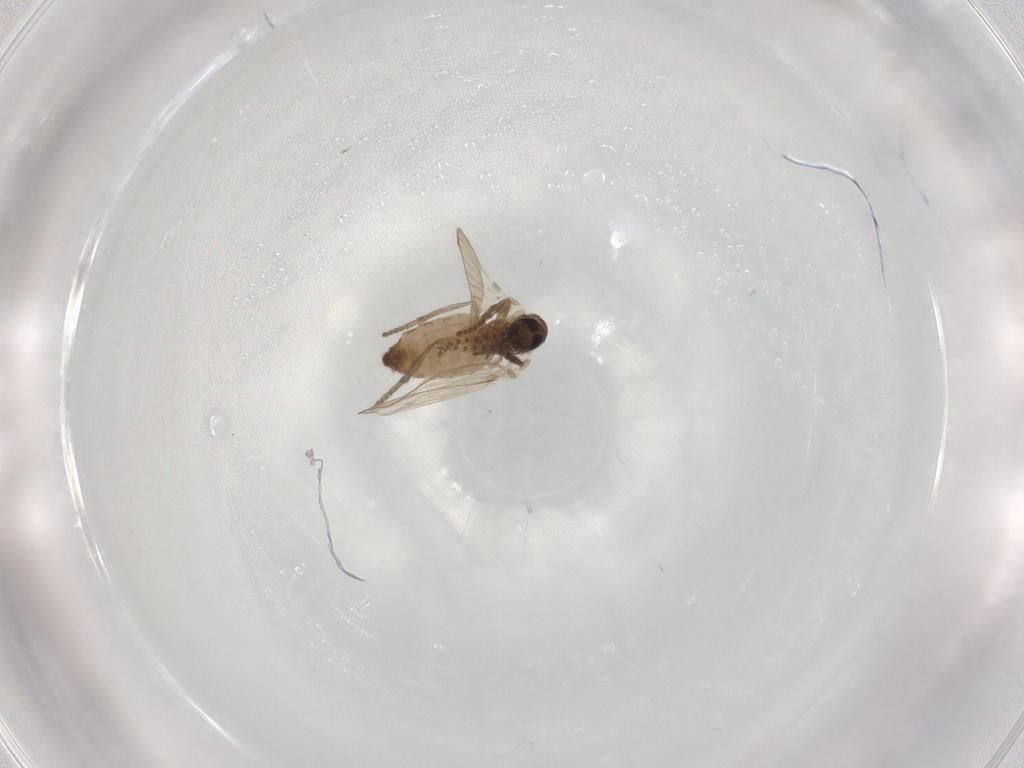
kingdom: Animalia
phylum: Arthropoda
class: Insecta
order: Diptera
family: Psychodidae
